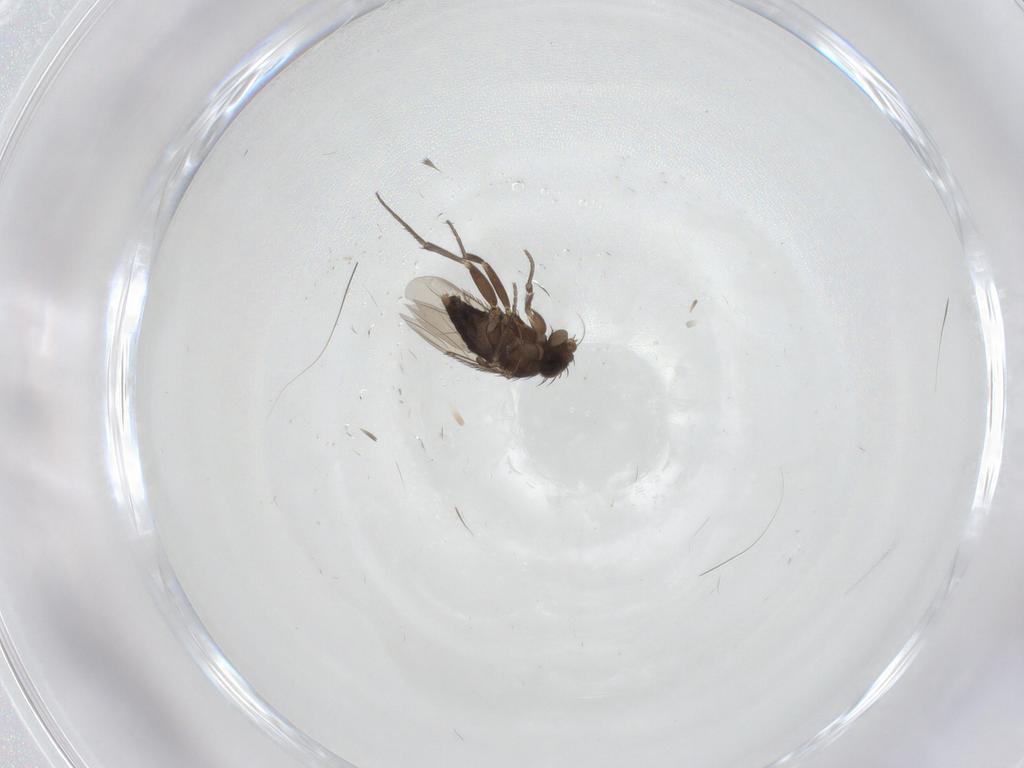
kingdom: Animalia
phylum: Arthropoda
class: Insecta
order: Diptera
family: Phoridae
